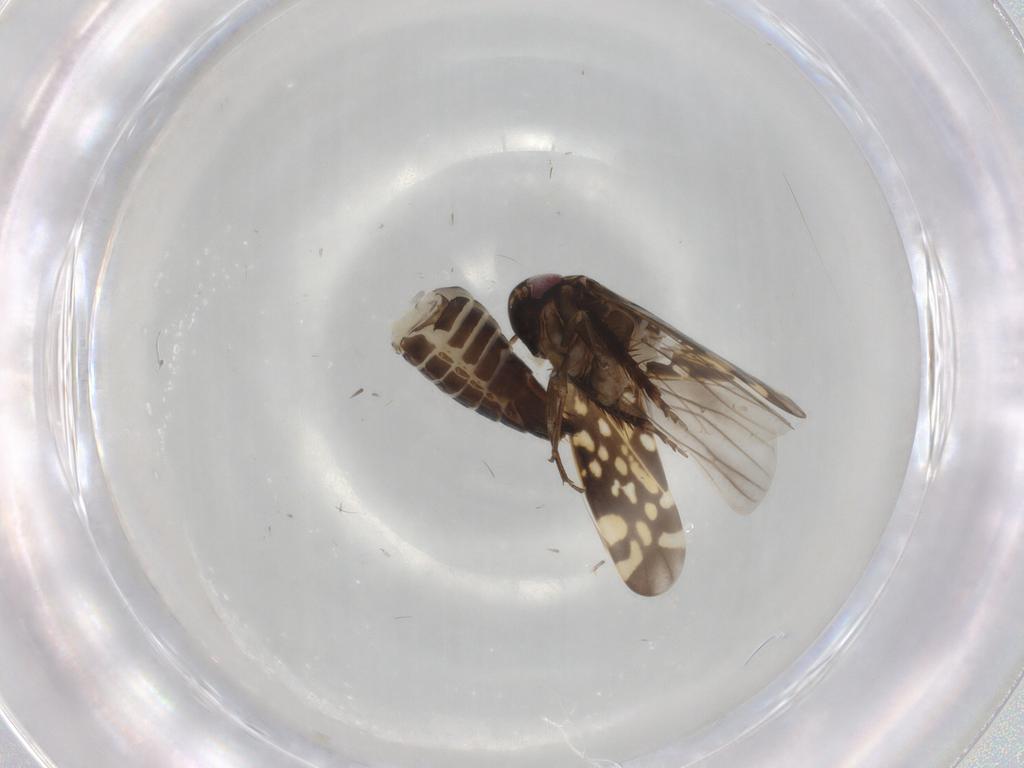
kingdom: Animalia
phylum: Arthropoda
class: Insecta
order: Hemiptera
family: Cicadellidae
